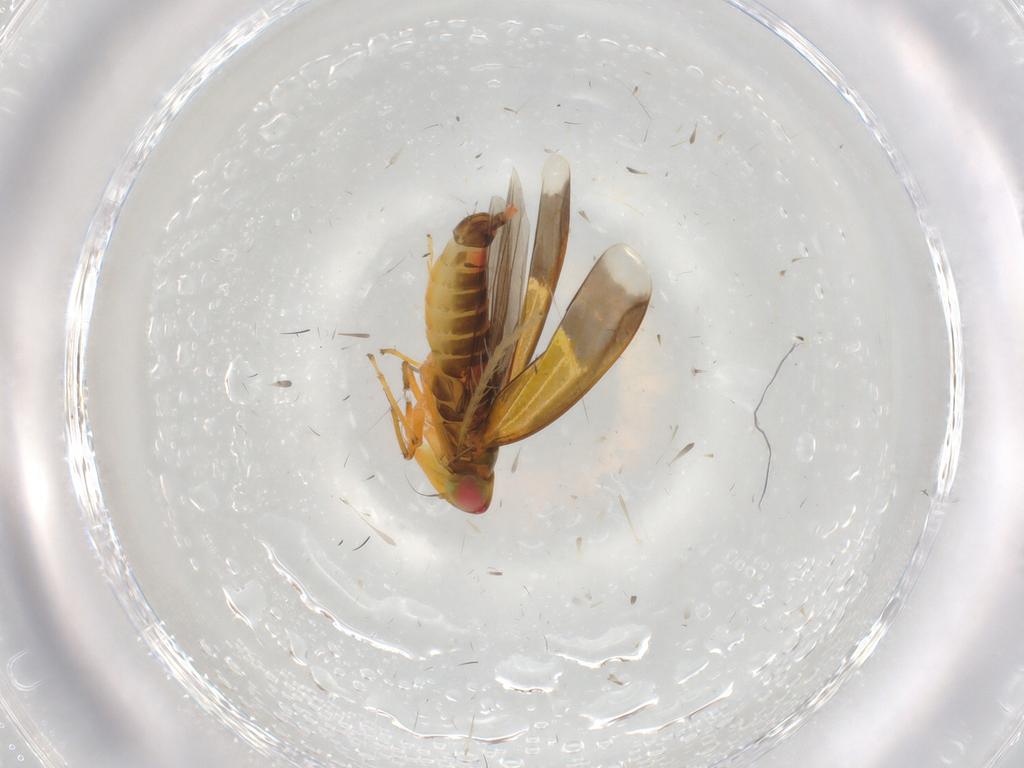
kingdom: Animalia
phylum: Arthropoda
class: Insecta
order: Hemiptera
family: Cicadellidae
